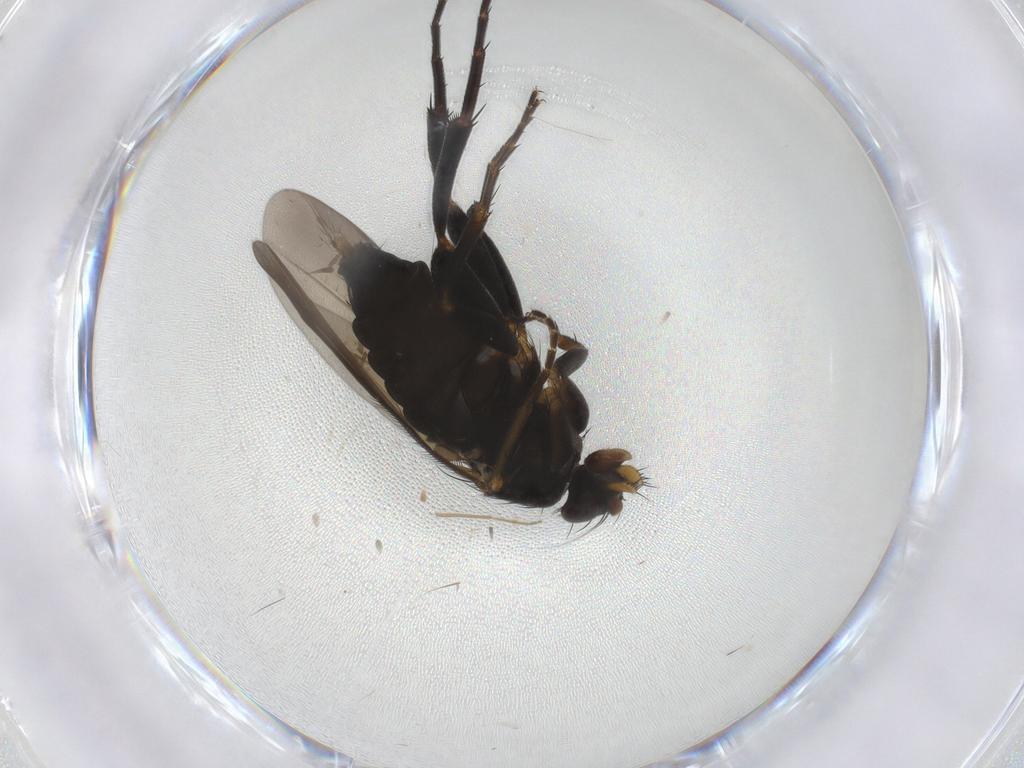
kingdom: Animalia
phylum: Arthropoda
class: Insecta
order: Diptera
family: Phoridae
